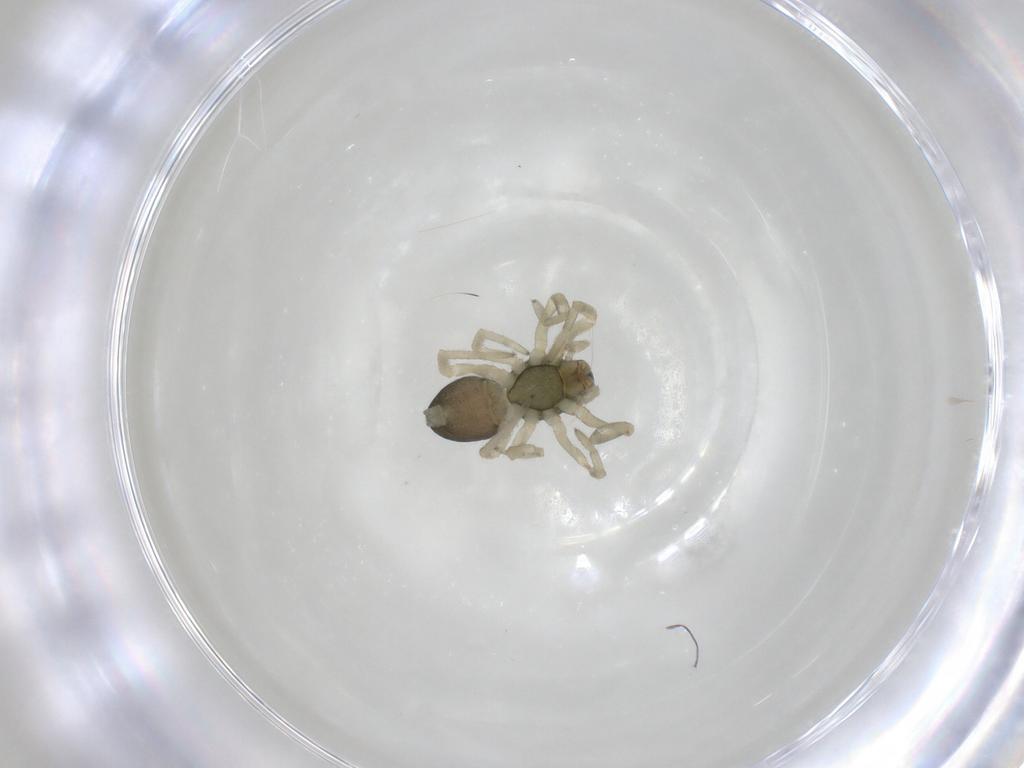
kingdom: Animalia
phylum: Arthropoda
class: Arachnida
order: Araneae
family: Trachelidae
